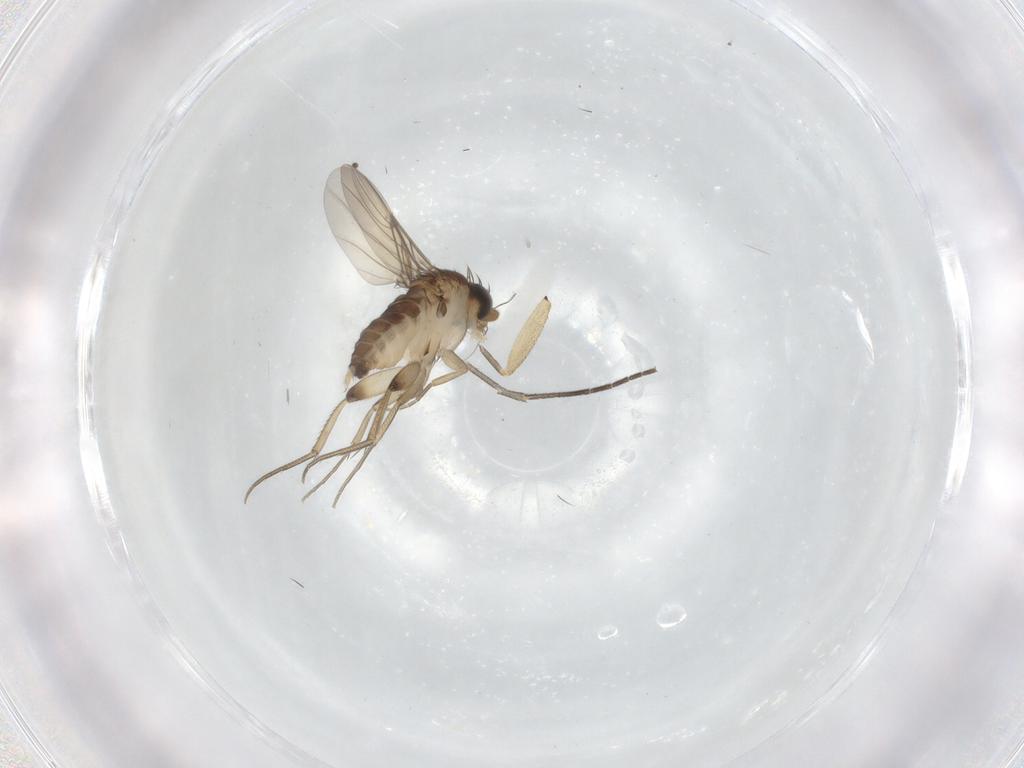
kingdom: Animalia
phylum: Arthropoda
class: Insecta
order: Diptera
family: Phoridae
